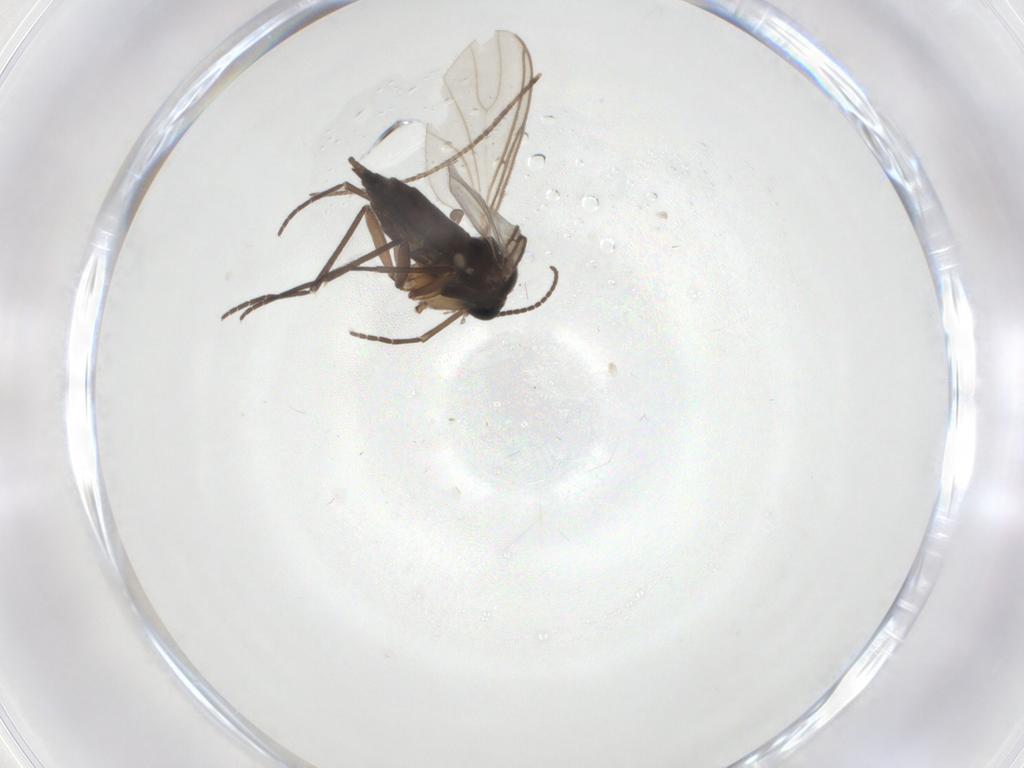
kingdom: Animalia
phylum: Arthropoda
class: Insecta
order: Diptera
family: Sciaridae
